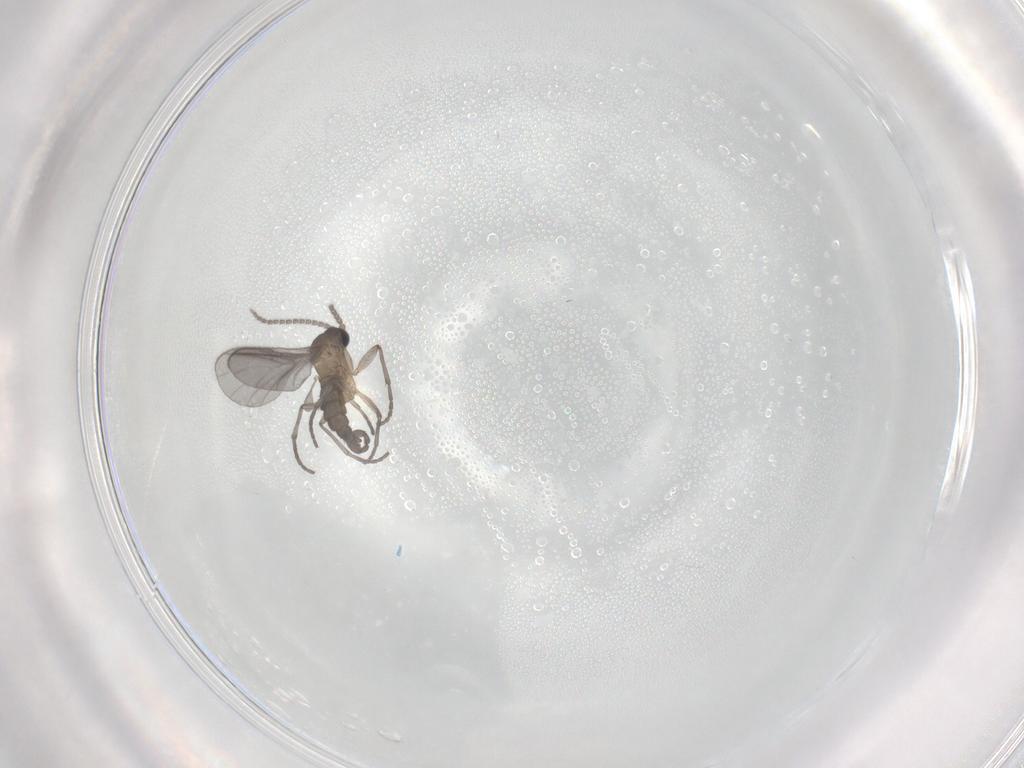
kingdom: Animalia
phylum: Arthropoda
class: Insecta
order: Diptera
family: Sciaridae
